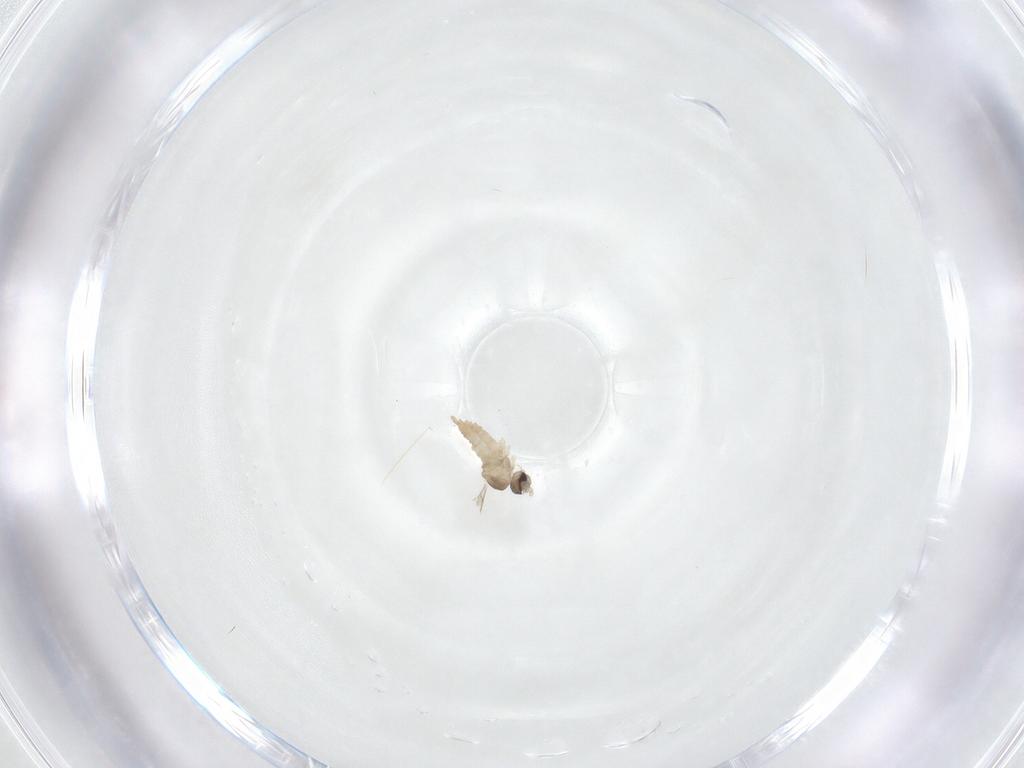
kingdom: Animalia
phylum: Arthropoda
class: Insecta
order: Diptera
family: Cecidomyiidae
